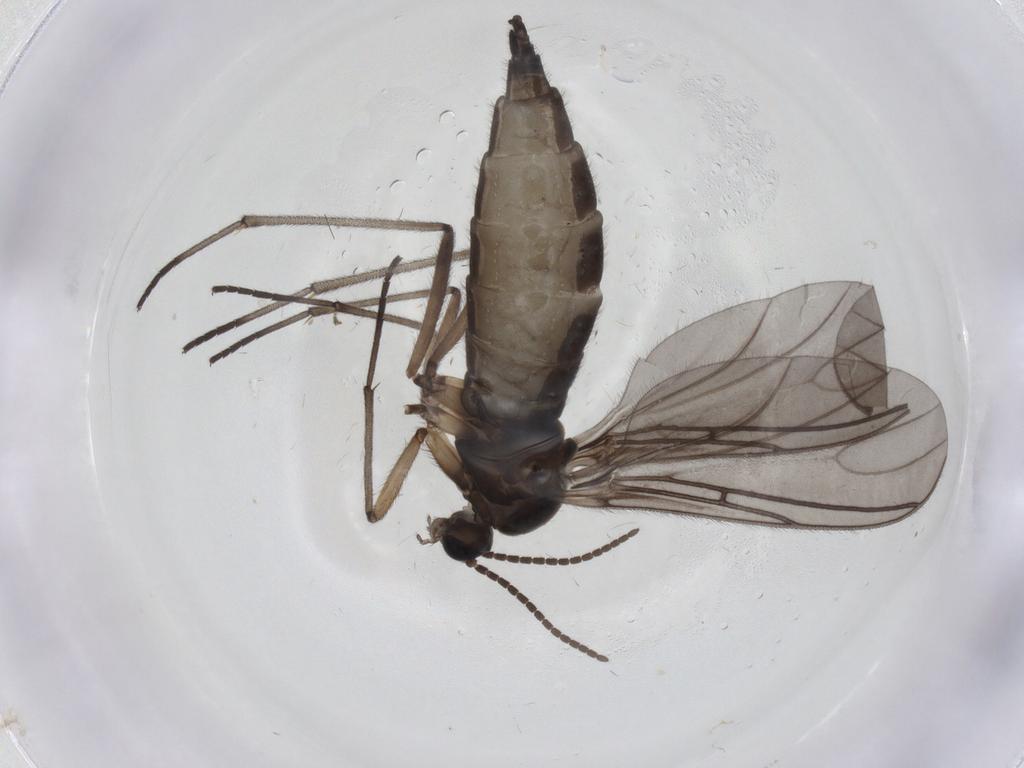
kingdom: Animalia
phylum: Arthropoda
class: Insecta
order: Diptera
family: Sciaridae
